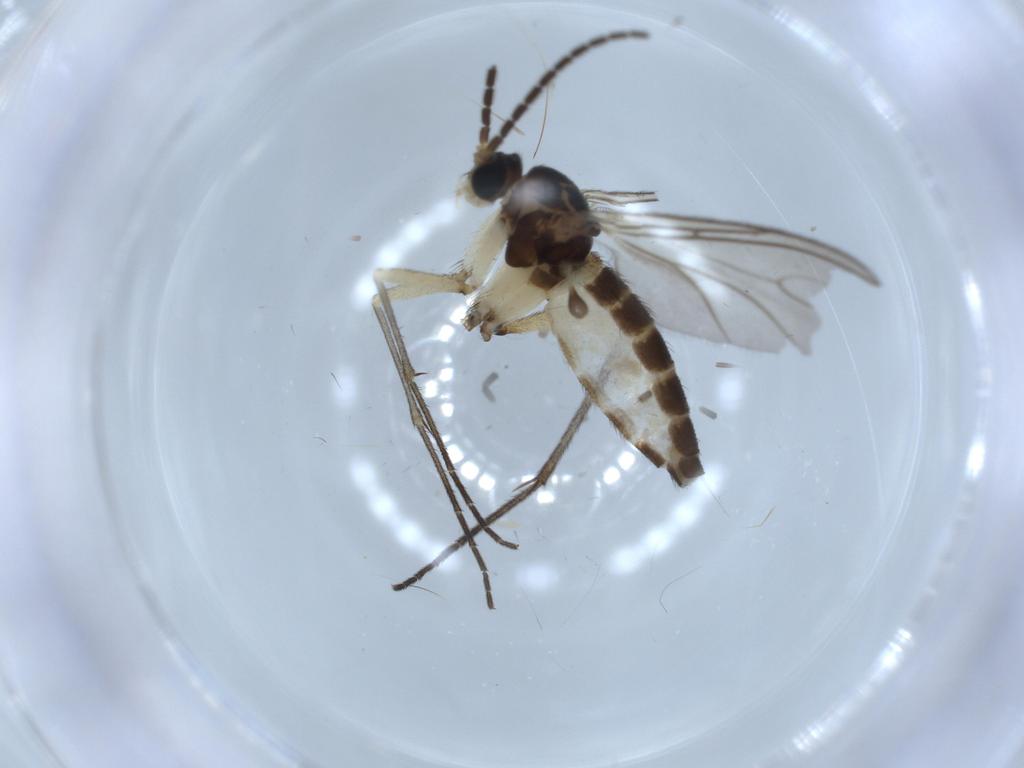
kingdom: Animalia
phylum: Arthropoda
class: Insecta
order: Diptera
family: Sciaridae
